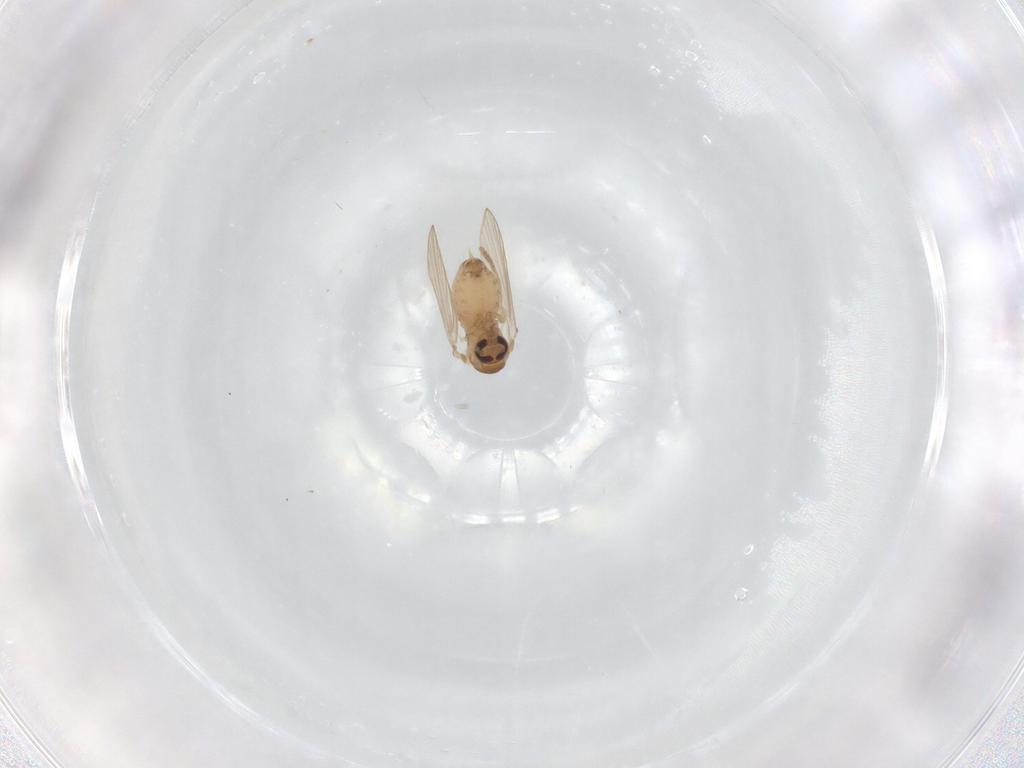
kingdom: Animalia
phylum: Arthropoda
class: Insecta
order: Diptera
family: Psychodidae
